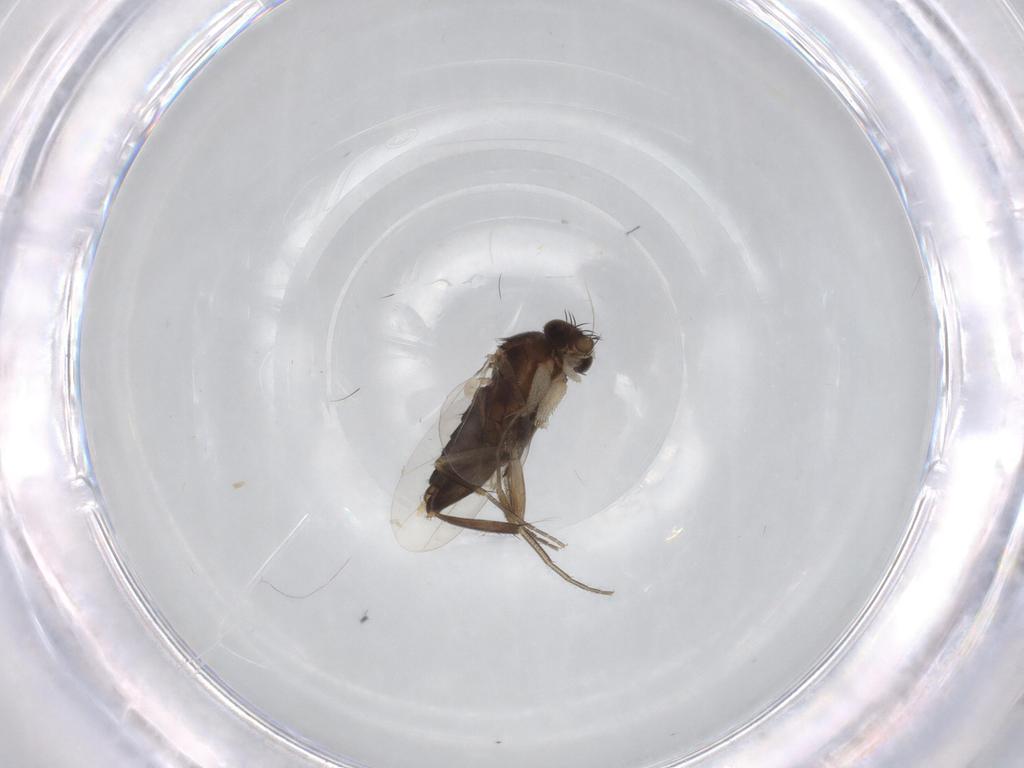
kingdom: Animalia
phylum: Arthropoda
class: Insecta
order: Diptera
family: Phoridae
